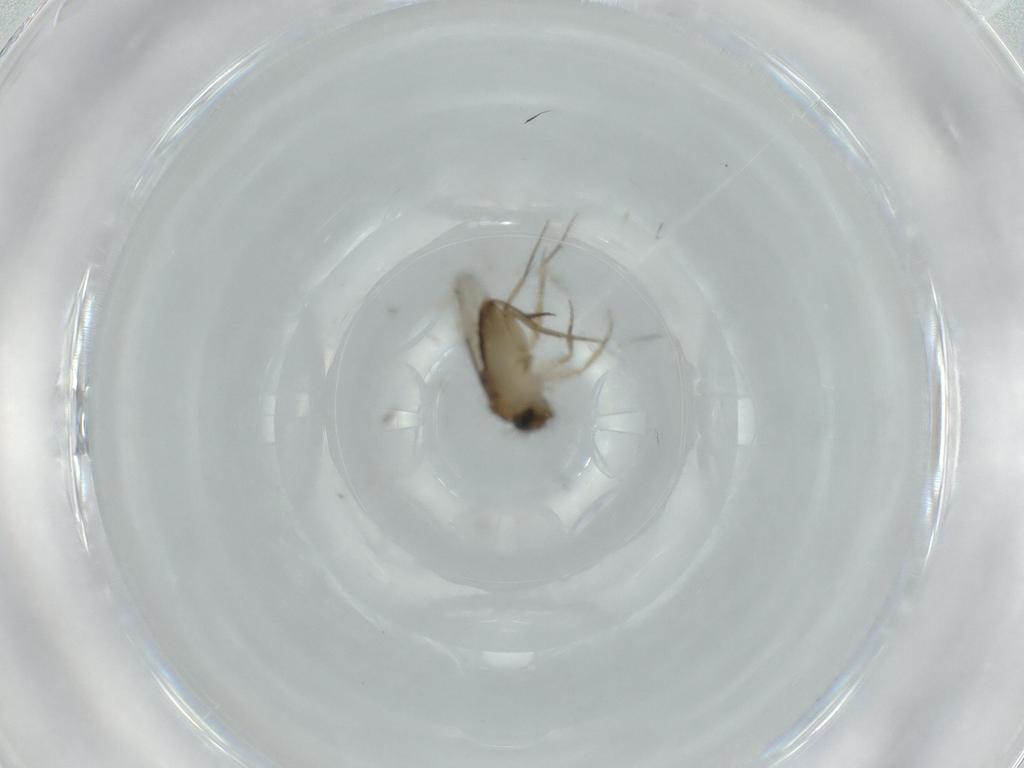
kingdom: Animalia
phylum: Arthropoda
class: Insecta
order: Diptera
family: Phoridae
